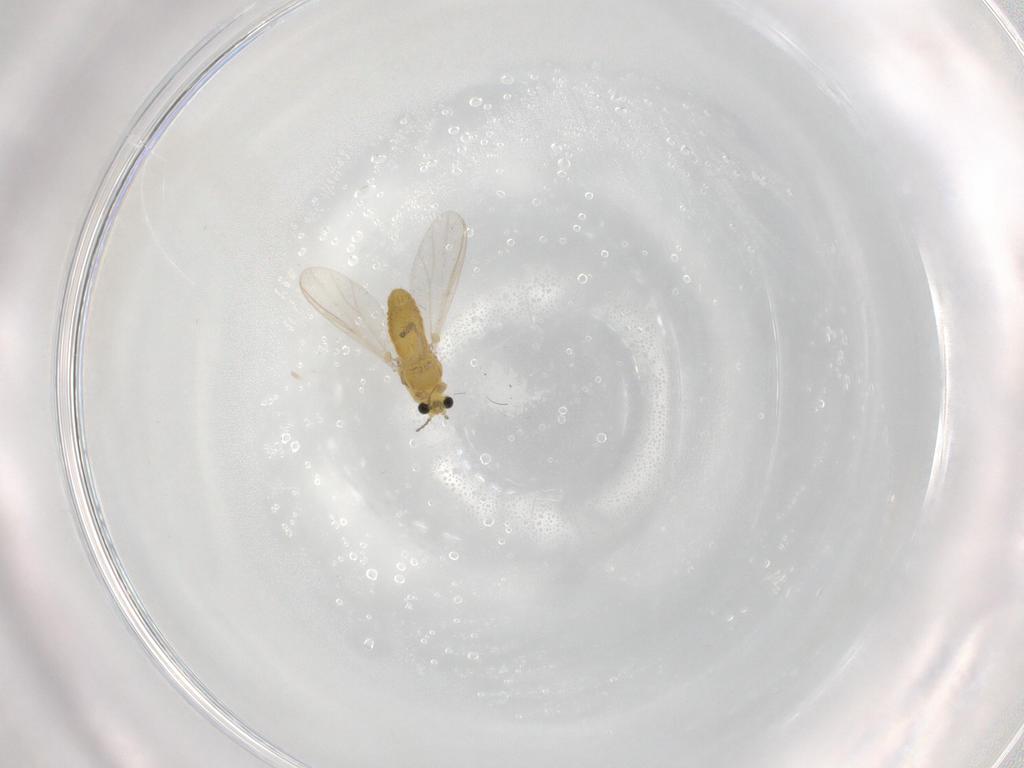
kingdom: Animalia
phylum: Arthropoda
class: Insecta
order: Diptera
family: Chironomidae
